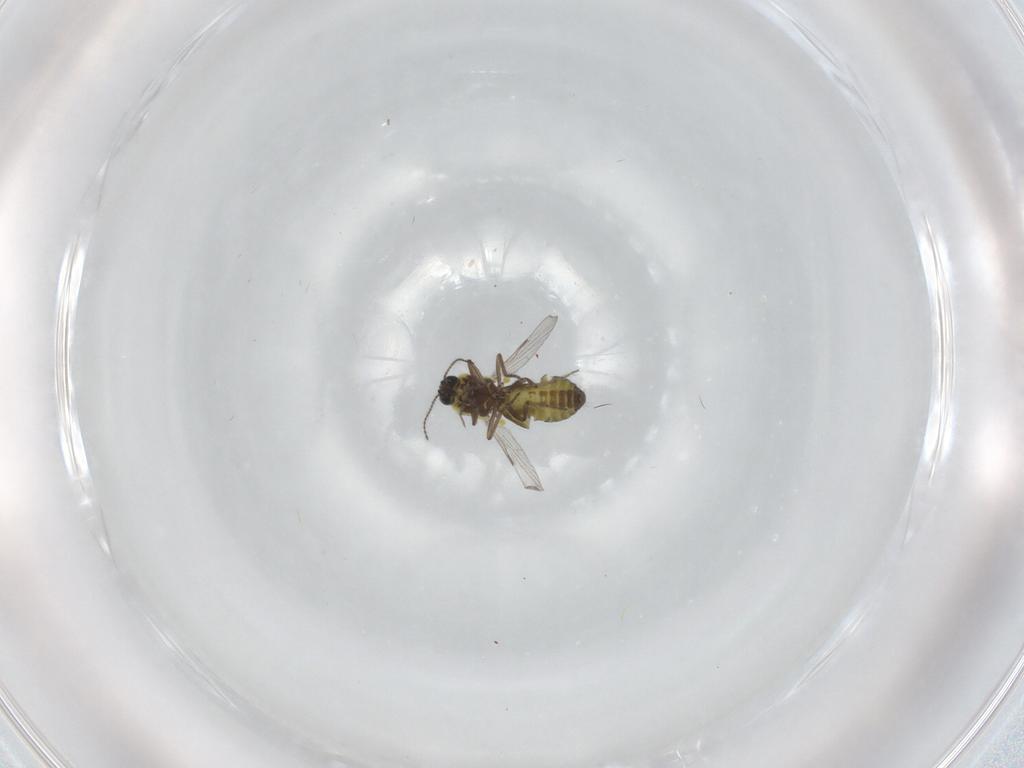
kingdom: Animalia
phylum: Arthropoda
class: Insecta
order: Diptera
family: Ceratopogonidae
